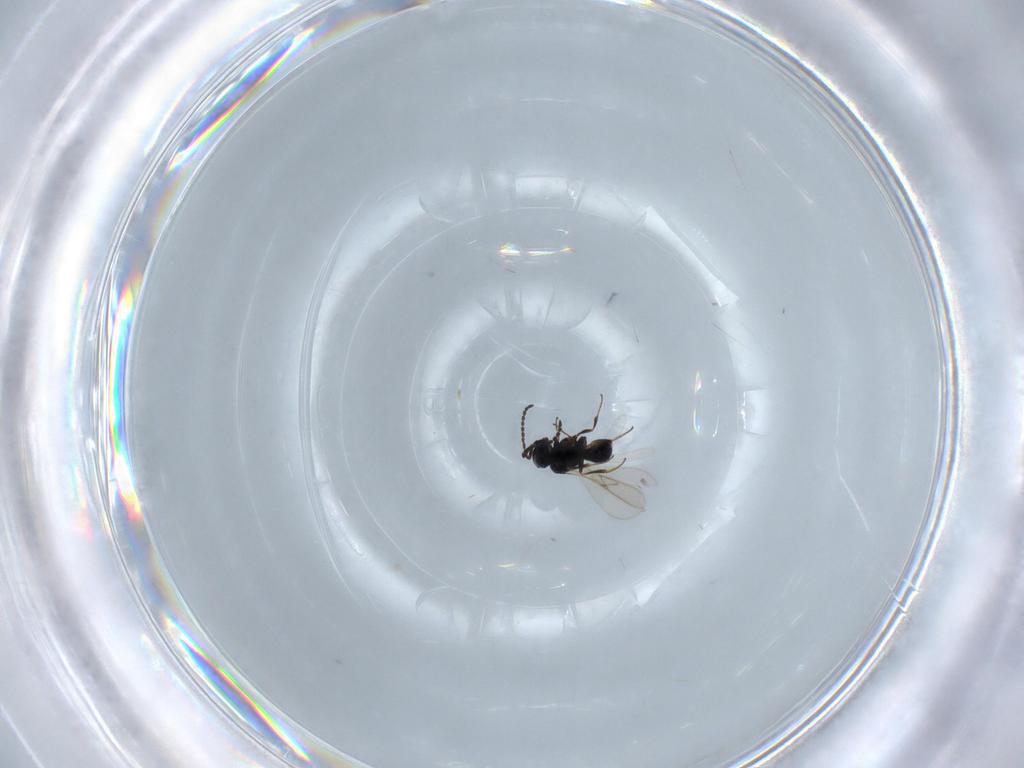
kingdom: Animalia
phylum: Arthropoda
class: Insecta
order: Hymenoptera
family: Scelionidae
